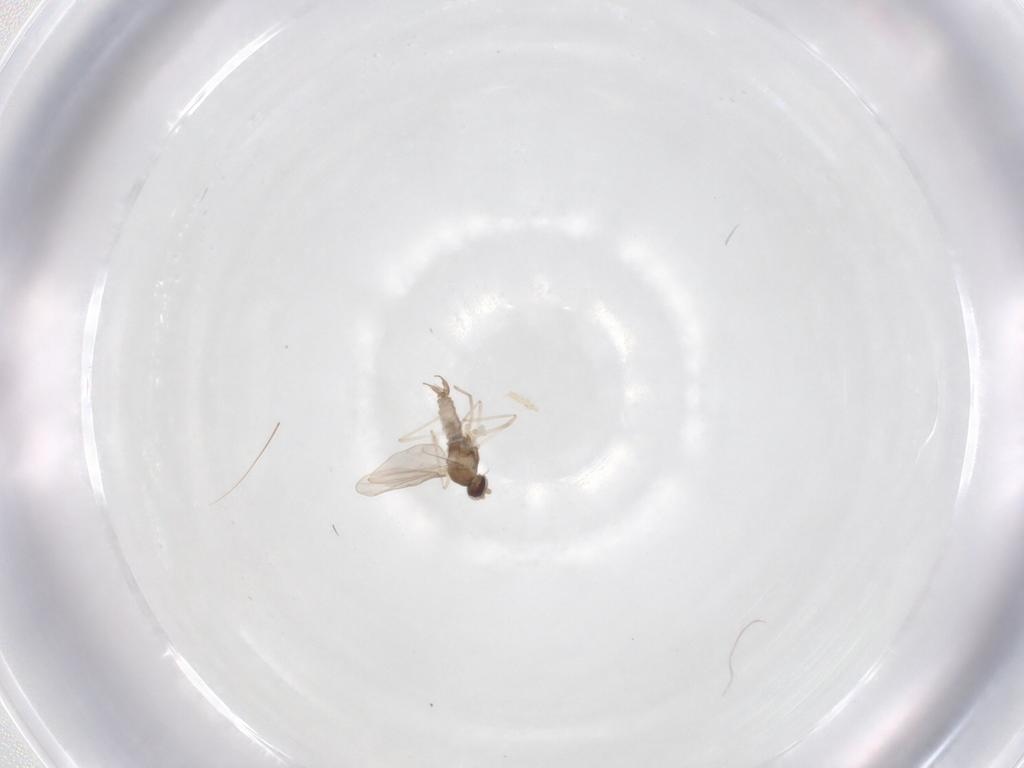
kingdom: Animalia
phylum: Arthropoda
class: Insecta
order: Diptera
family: Cecidomyiidae
